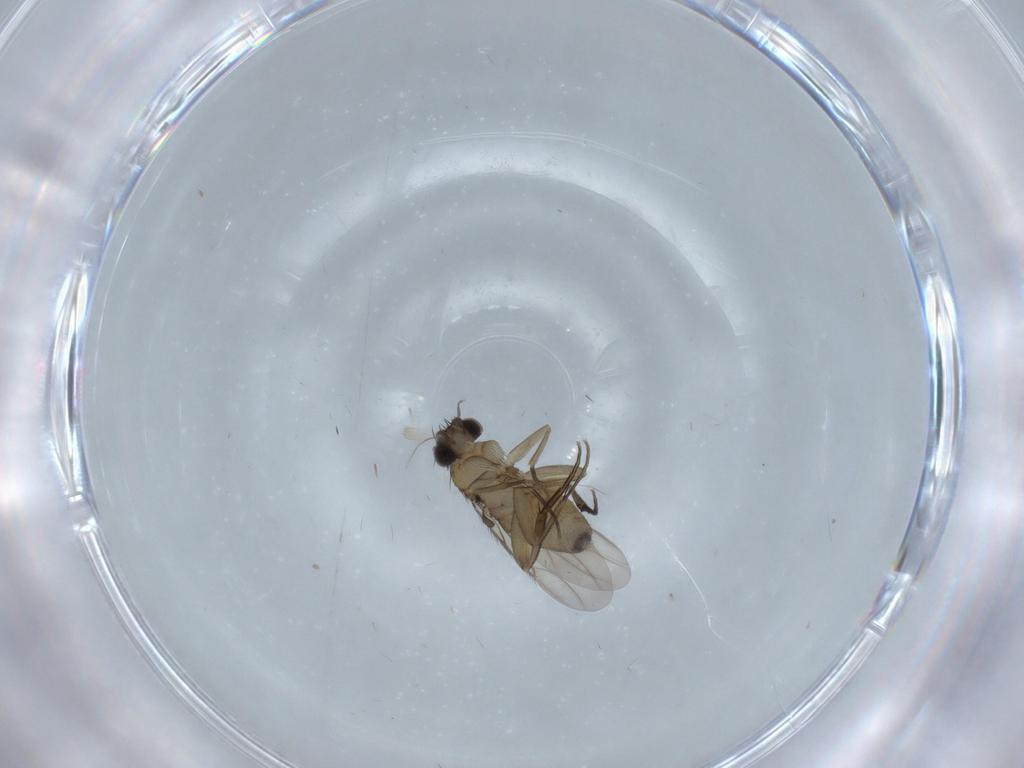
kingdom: Animalia
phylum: Arthropoda
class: Insecta
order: Diptera
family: Phoridae
